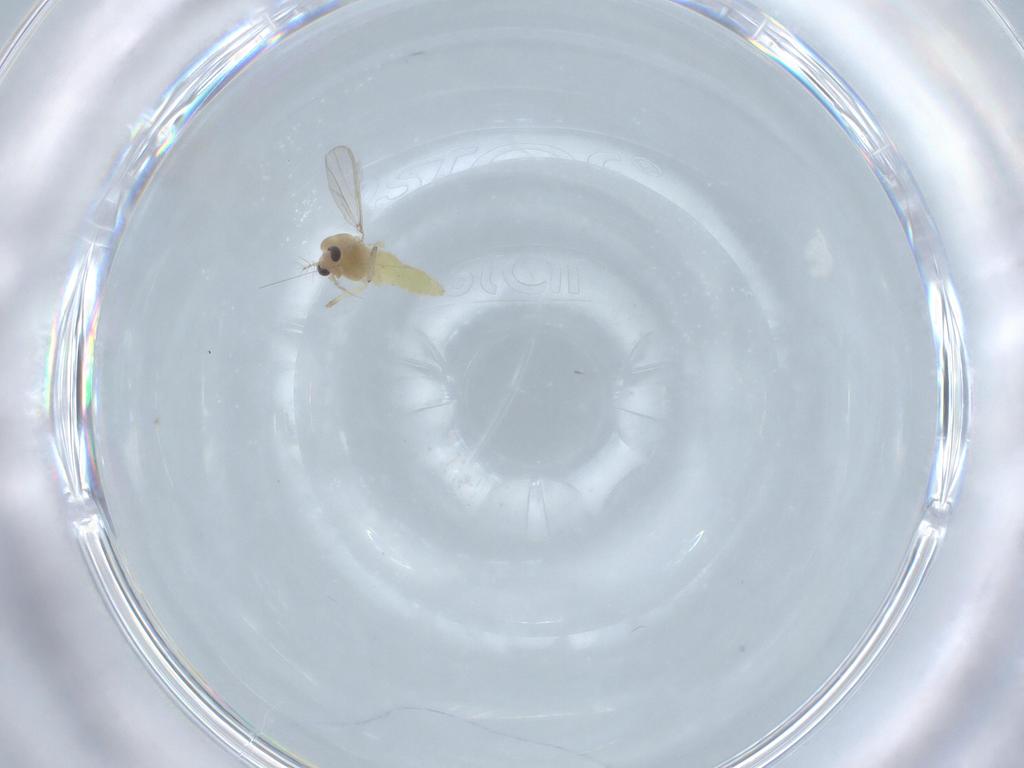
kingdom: Animalia
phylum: Arthropoda
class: Insecta
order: Diptera
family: Chironomidae
